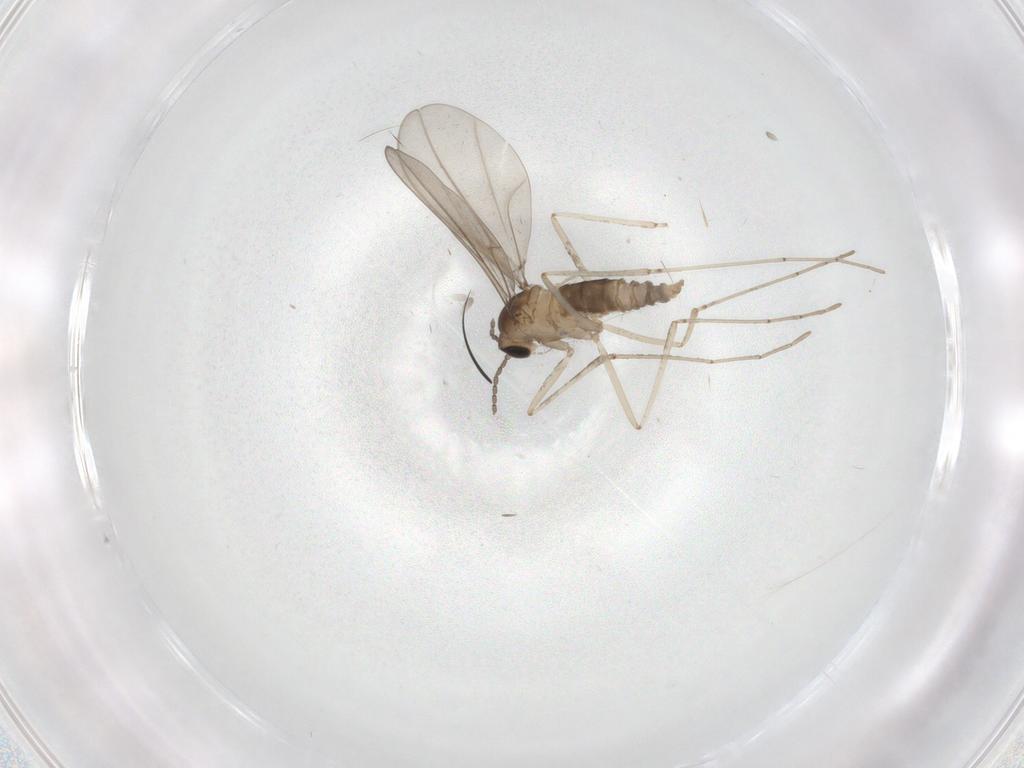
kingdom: Animalia
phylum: Arthropoda
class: Insecta
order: Diptera
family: Cecidomyiidae
